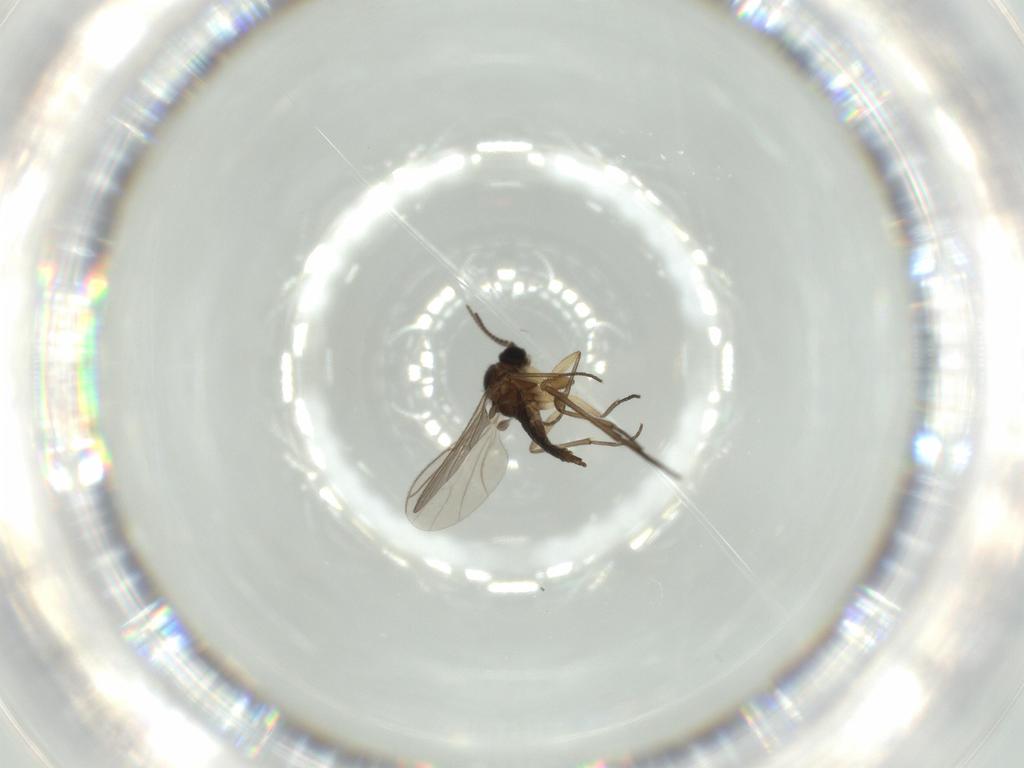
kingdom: Animalia
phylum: Arthropoda
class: Insecta
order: Diptera
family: Sciaridae
